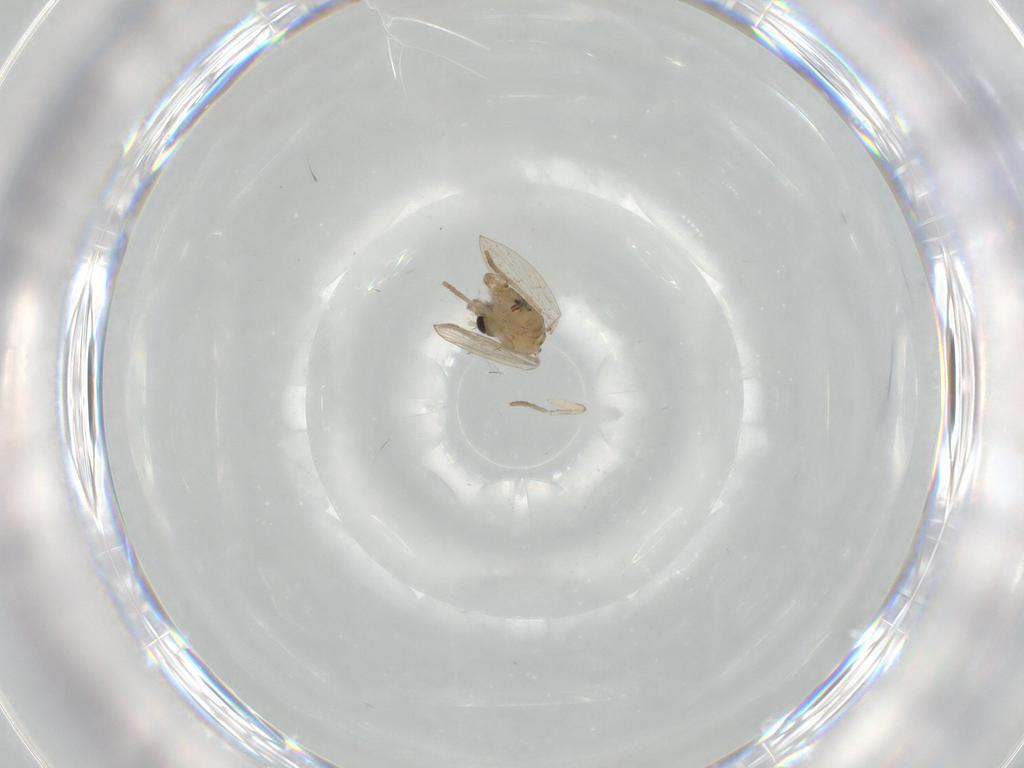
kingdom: Animalia
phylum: Arthropoda
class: Insecta
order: Diptera
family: Psychodidae
